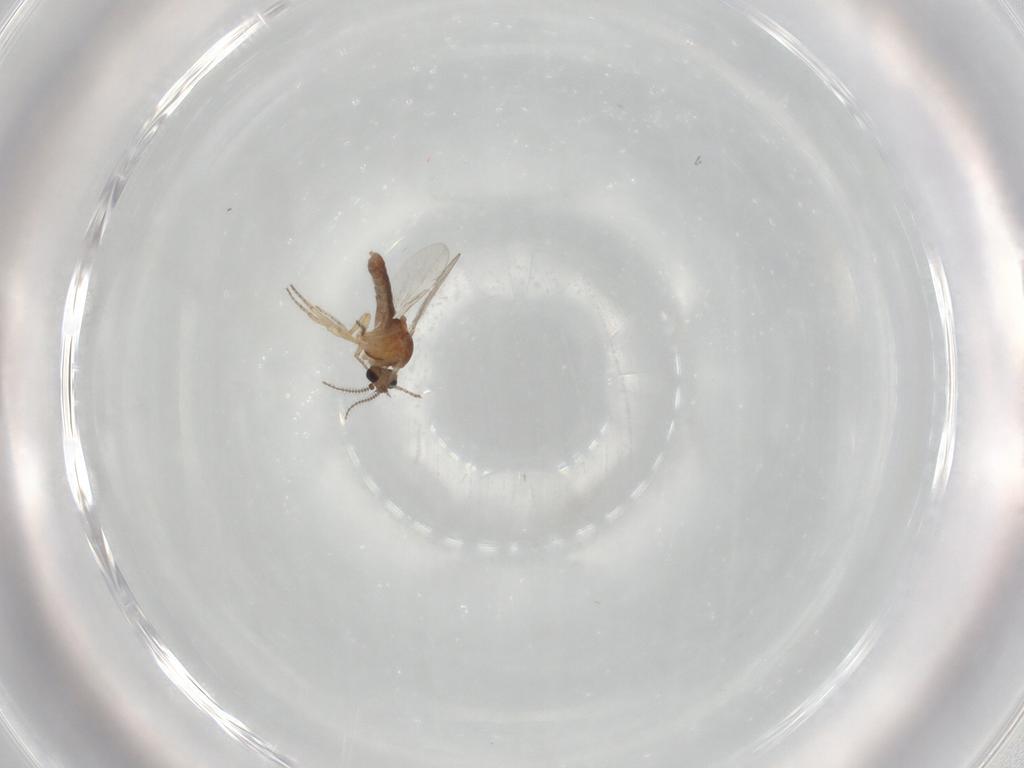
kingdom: Animalia
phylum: Arthropoda
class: Insecta
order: Diptera
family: Ceratopogonidae
